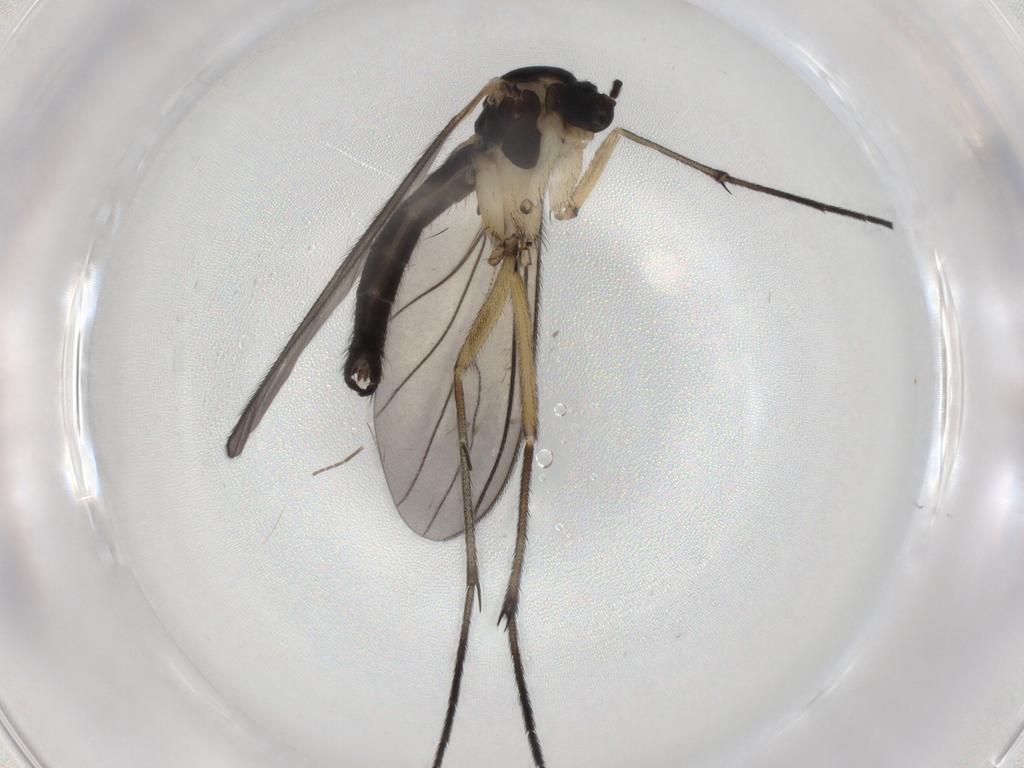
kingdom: Animalia
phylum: Arthropoda
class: Insecta
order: Diptera
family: Sciaridae
